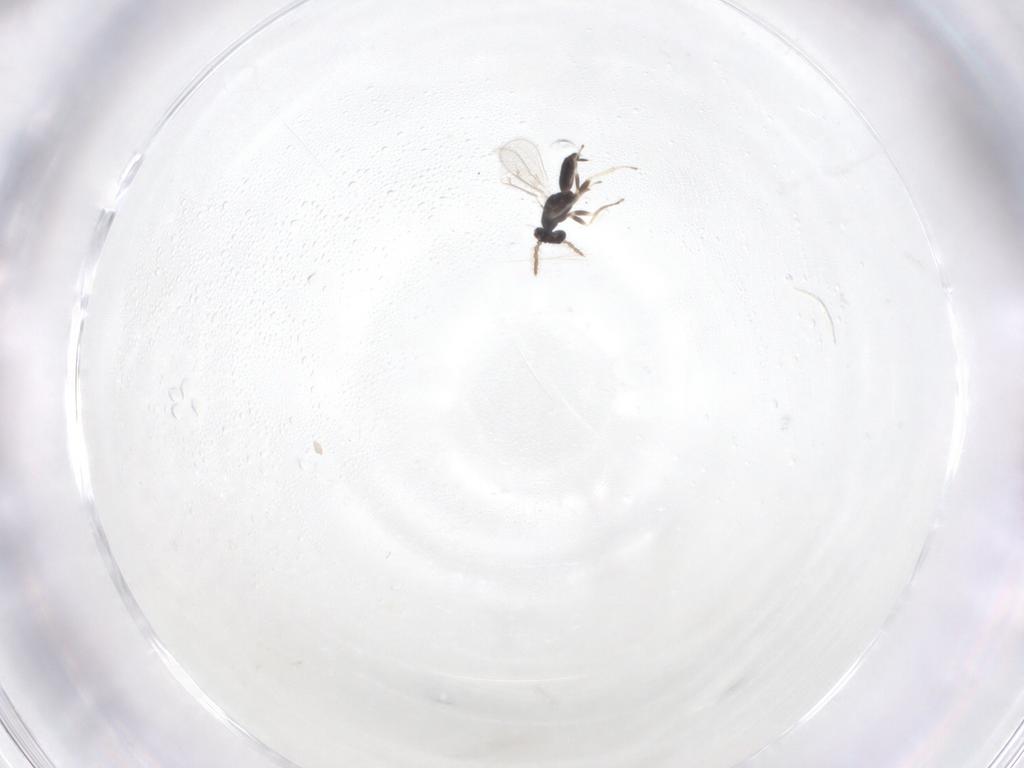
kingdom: Animalia
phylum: Arthropoda
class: Insecta
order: Hymenoptera
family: Eulophidae
